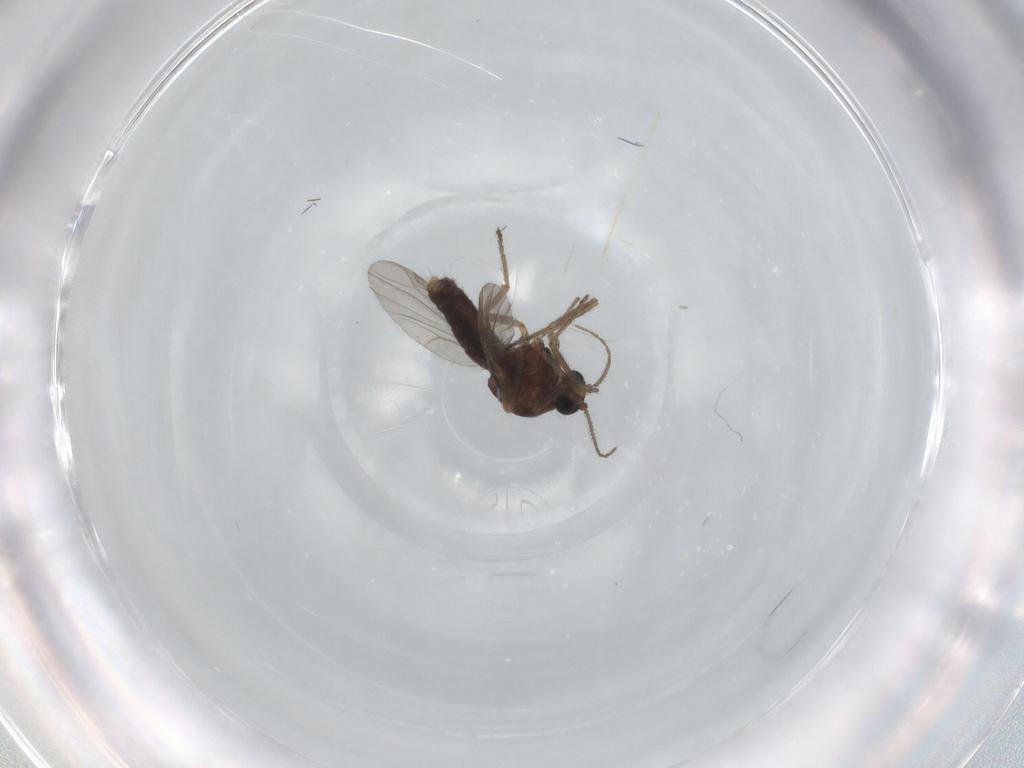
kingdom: Animalia
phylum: Arthropoda
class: Insecta
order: Diptera
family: Ceratopogonidae
